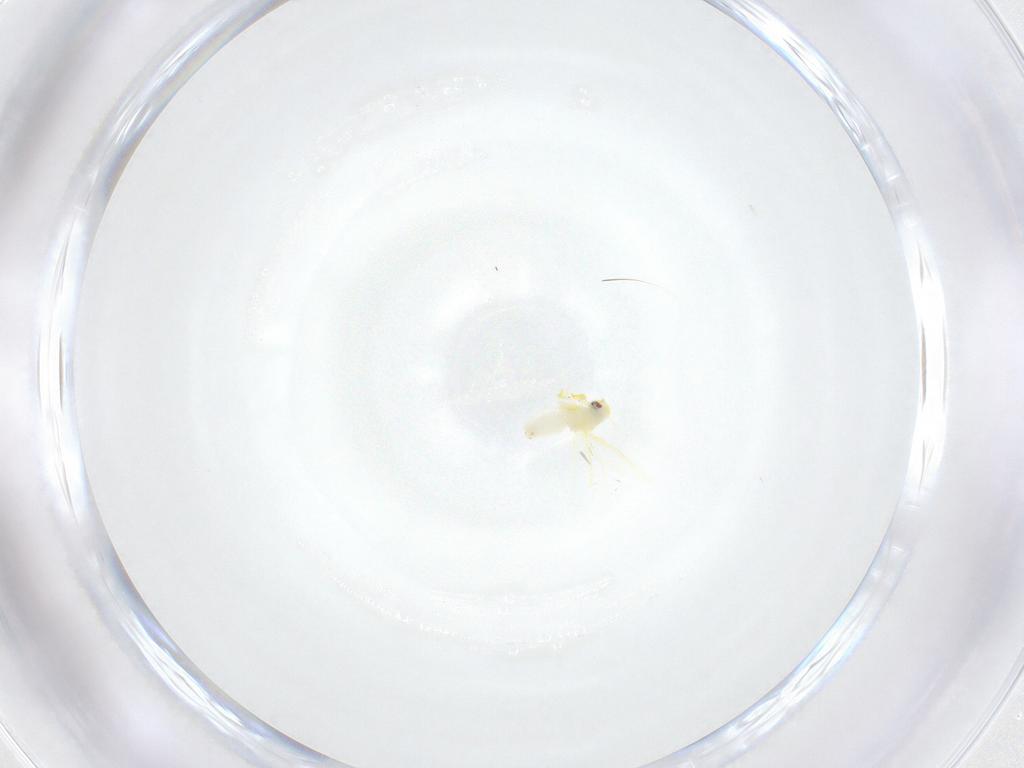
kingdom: Animalia
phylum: Arthropoda
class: Insecta
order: Hemiptera
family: Aleyrodidae
